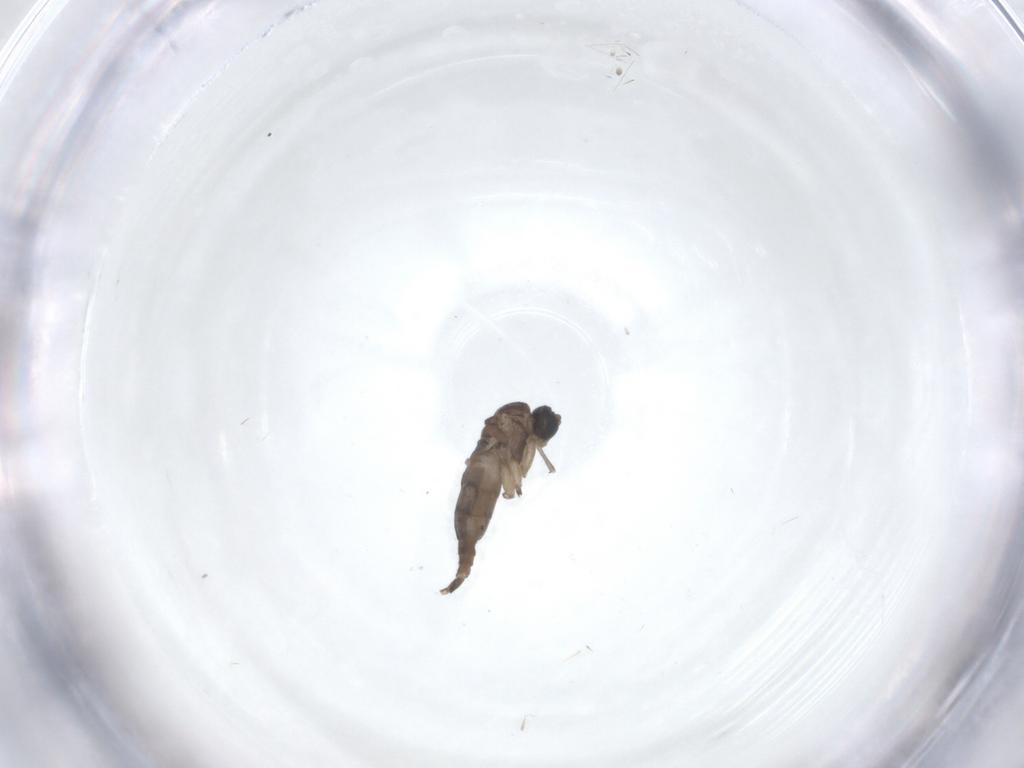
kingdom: Animalia
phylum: Arthropoda
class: Insecta
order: Diptera
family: Sciaridae
